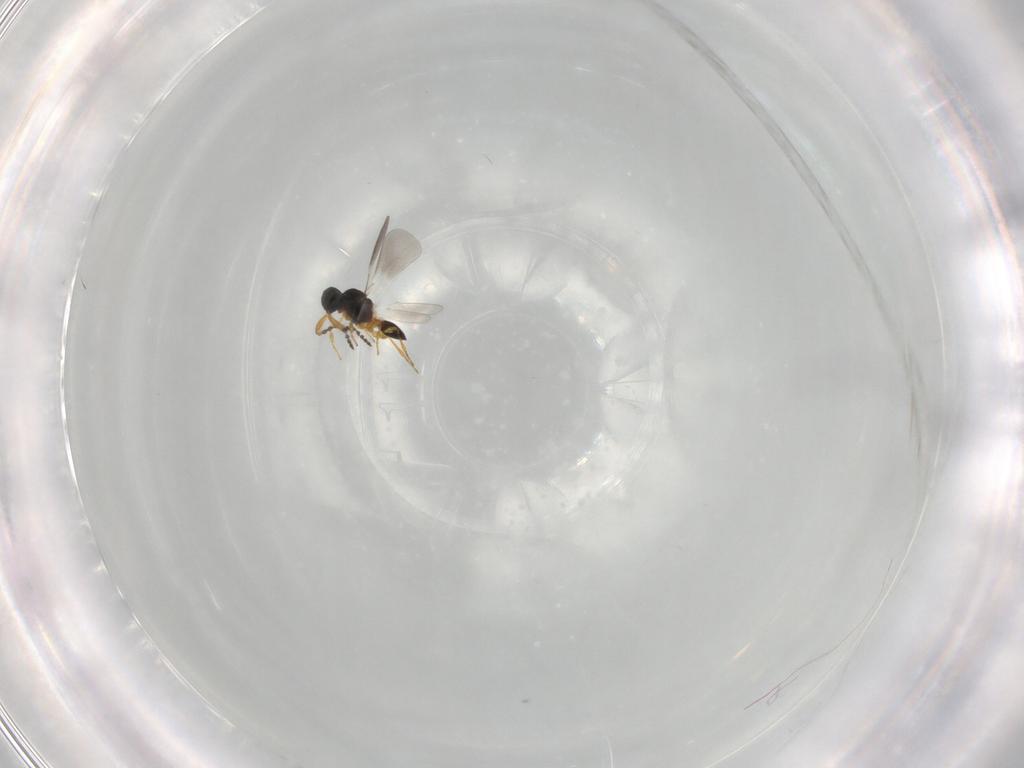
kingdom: Animalia
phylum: Arthropoda
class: Insecta
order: Hymenoptera
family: Platygastridae
